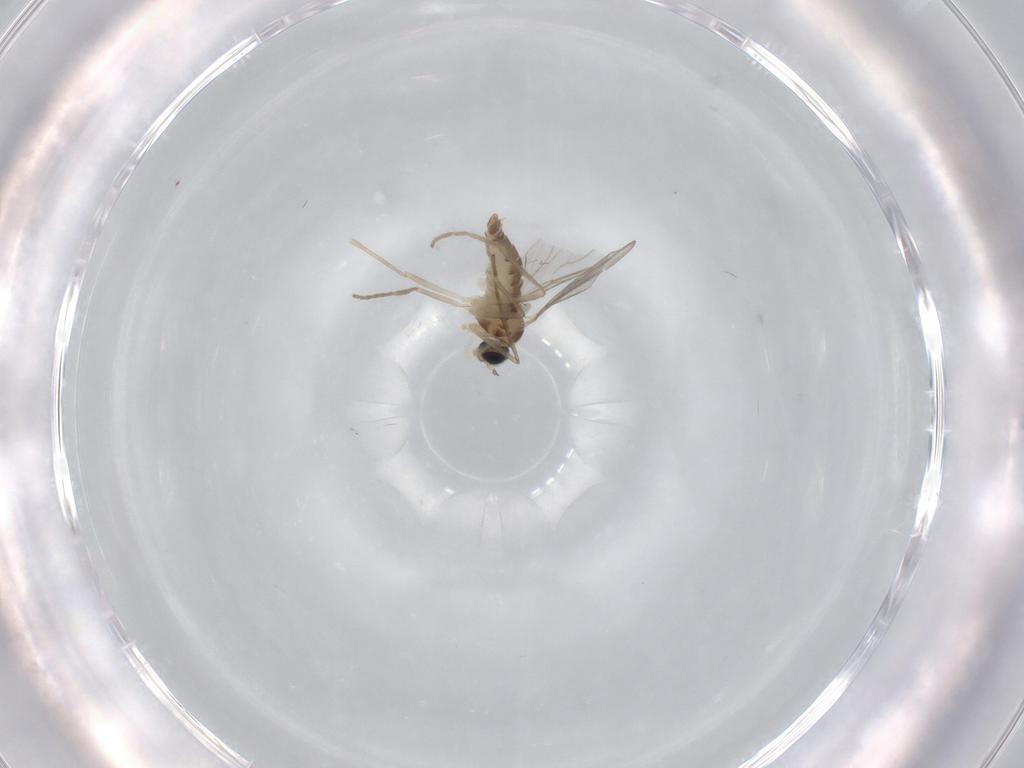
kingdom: Animalia
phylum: Arthropoda
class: Insecta
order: Diptera
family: Cecidomyiidae
